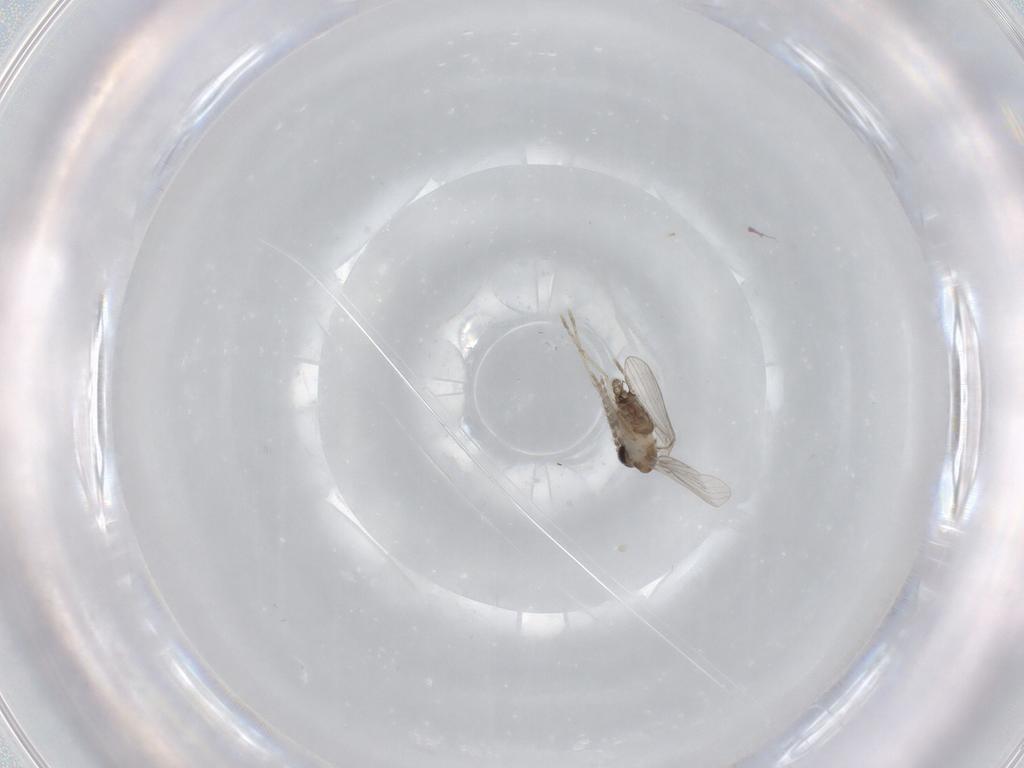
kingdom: Animalia
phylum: Arthropoda
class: Insecta
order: Diptera
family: Psychodidae
